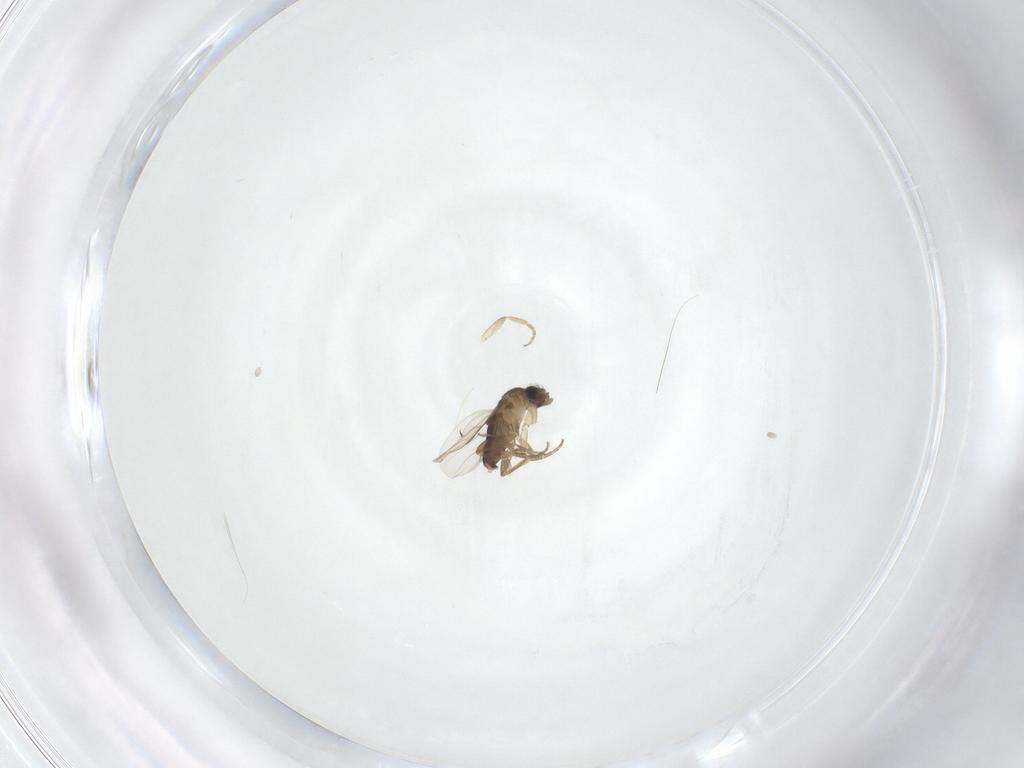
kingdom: Animalia
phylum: Arthropoda
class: Insecta
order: Diptera
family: Phoridae
